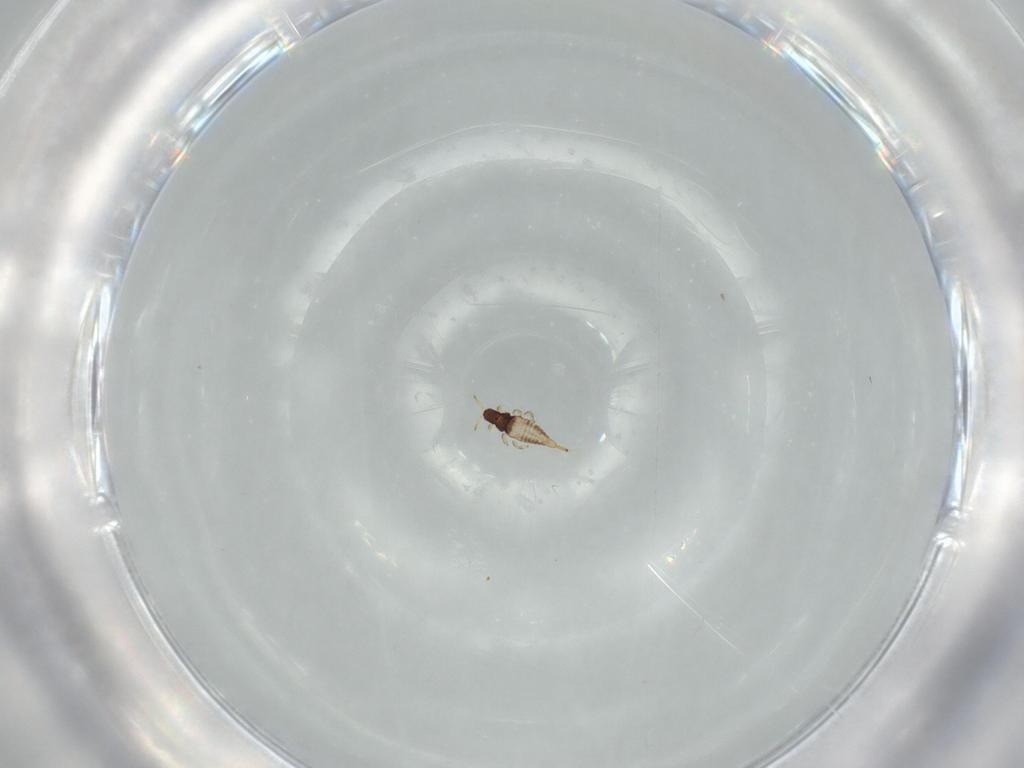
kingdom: Animalia
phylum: Arthropoda
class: Insecta
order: Thysanoptera
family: Phlaeothripidae
